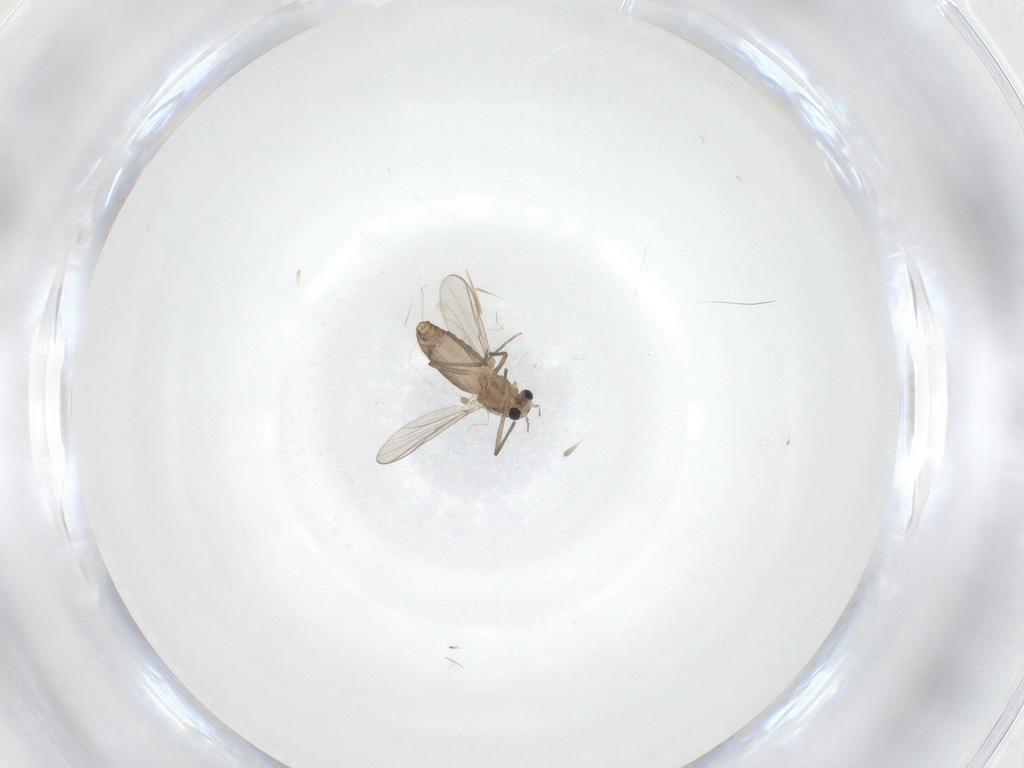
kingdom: Animalia
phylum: Arthropoda
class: Insecta
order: Diptera
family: Chironomidae
